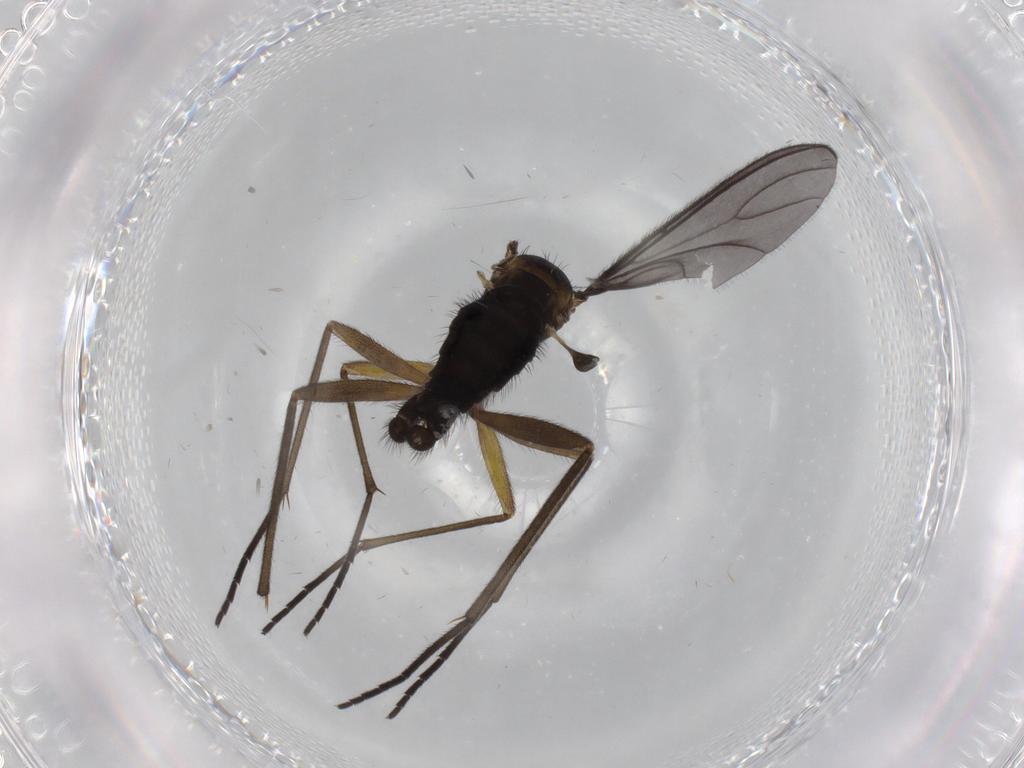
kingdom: Animalia
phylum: Arthropoda
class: Insecta
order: Diptera
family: Sciaridae
